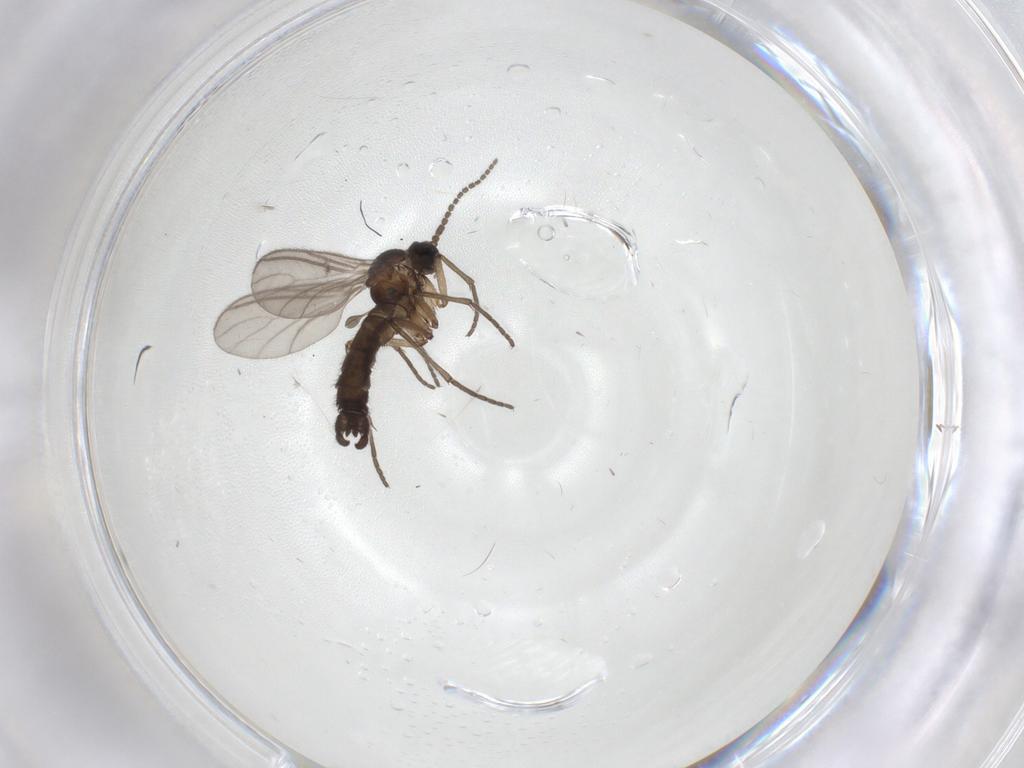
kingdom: Animalia
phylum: Arthropoda
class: Insecta
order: Diptera
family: Sciaridae
